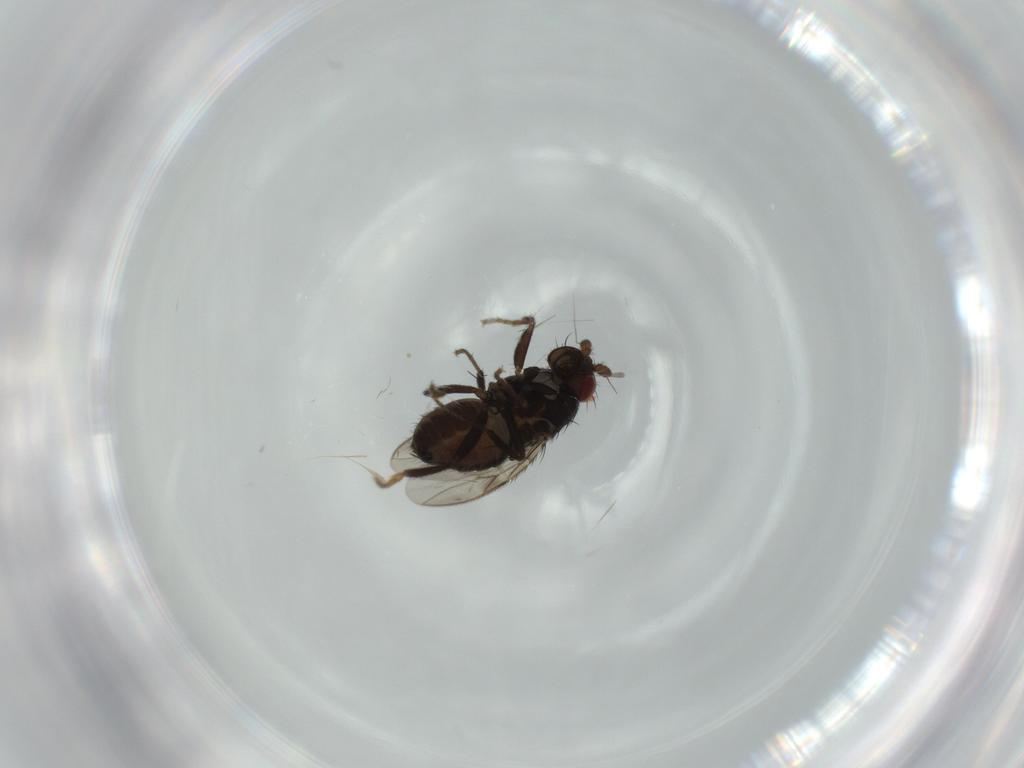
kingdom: Animalia
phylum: Arthropoda
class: Insecta
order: Diptera
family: Sphaeroceridae
